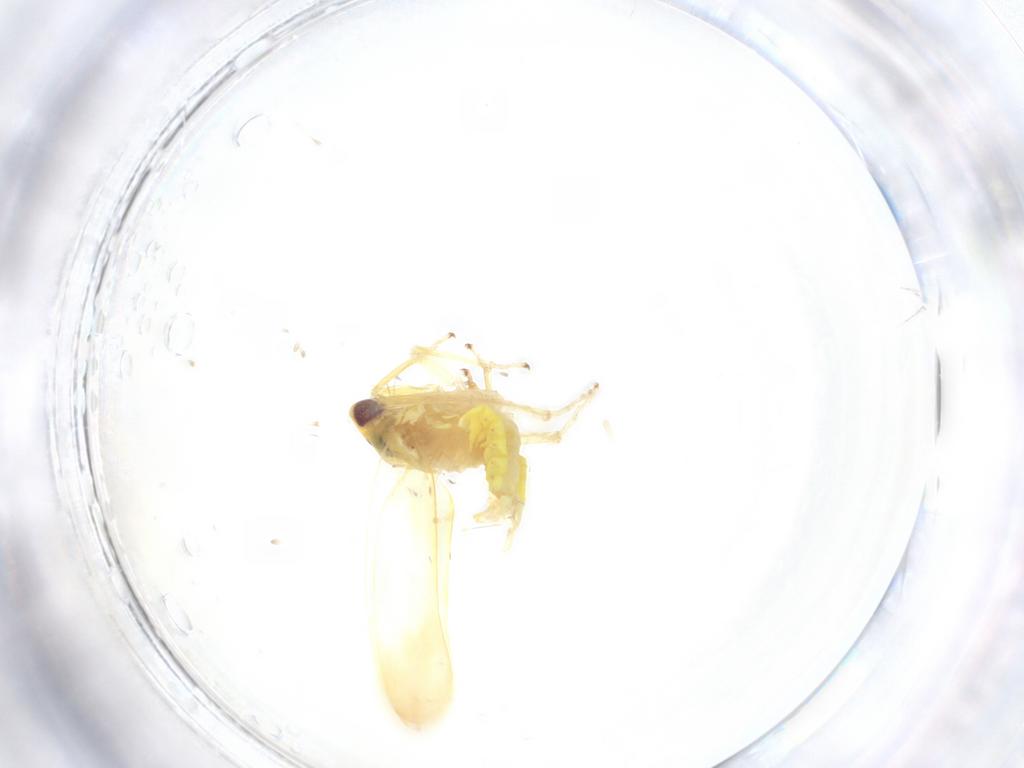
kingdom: Animalia
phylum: Arthropoda
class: Insecta
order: Hemiptera
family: Cicadellidae
